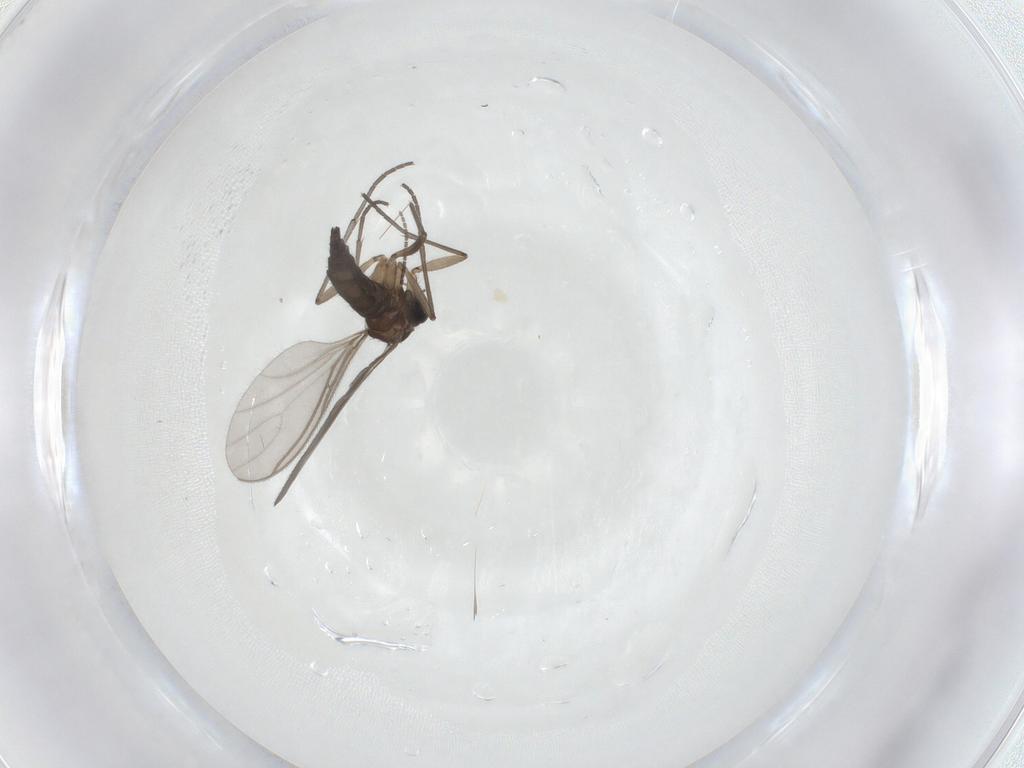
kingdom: Animalia
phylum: Arthropoda
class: Insecta
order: Diptera
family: Sciaridae
